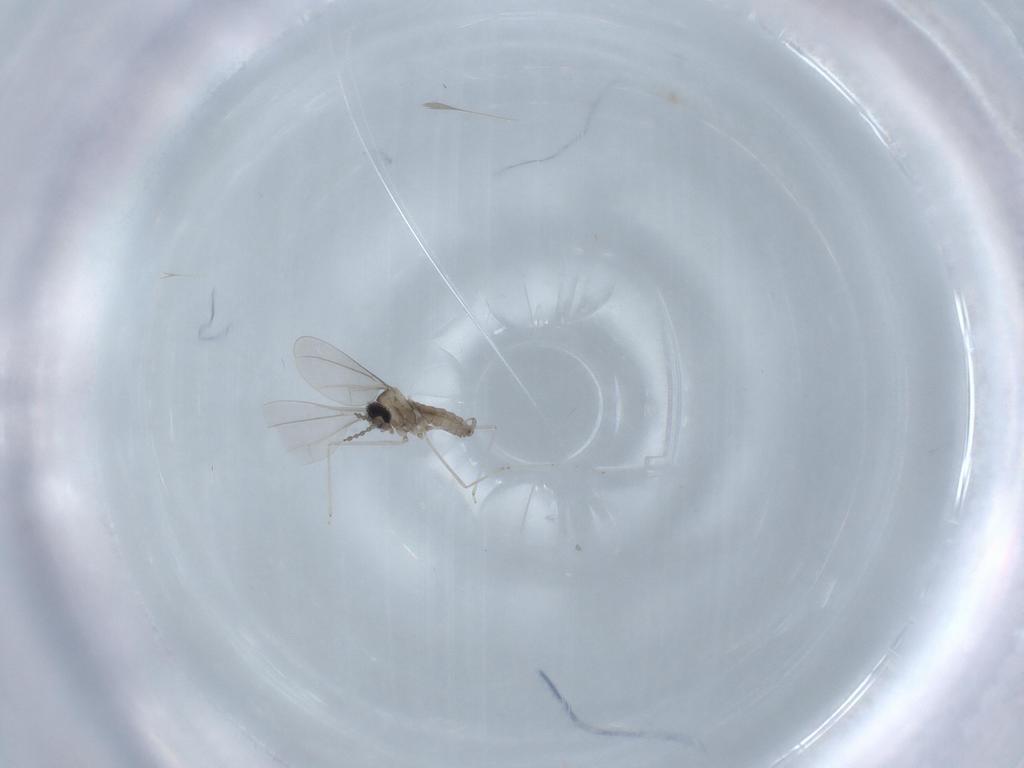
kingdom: Animalia
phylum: Arthropoda
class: Insecta
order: Diptera
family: Cecidomyiidae
